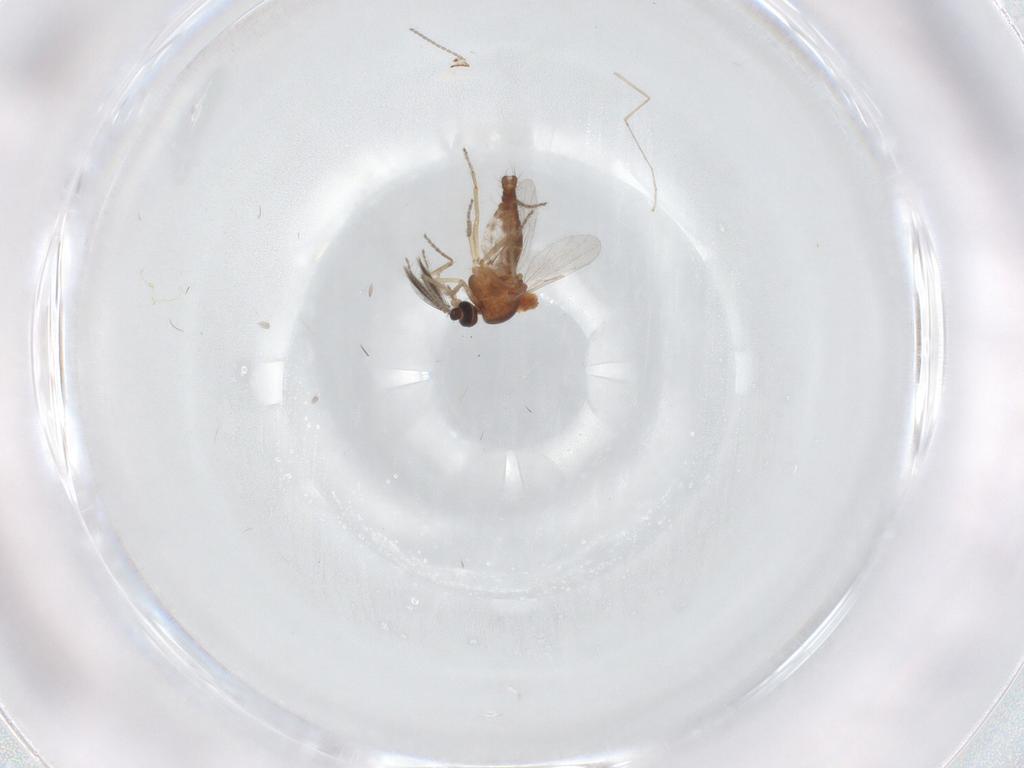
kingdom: Animalia
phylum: Arthropoda
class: Insecta
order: Diptera
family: Ceratopogonidae
